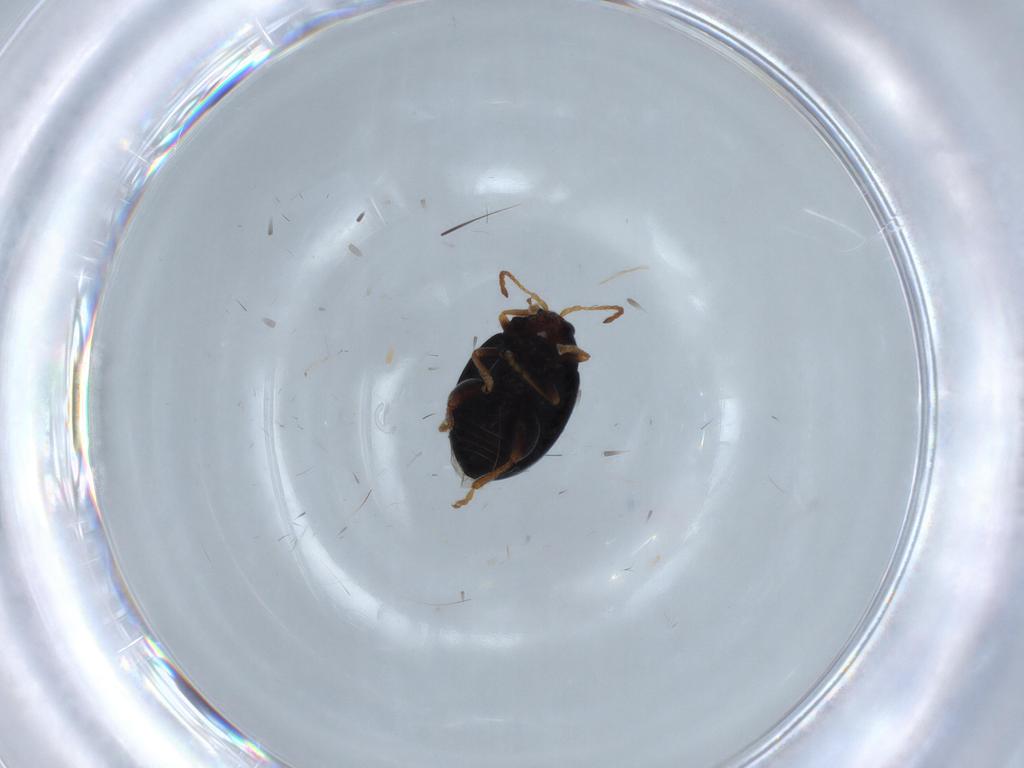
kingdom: Animalia
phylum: Arthropoda
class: Insecta
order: Coleoptera
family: Chrysomelidae
